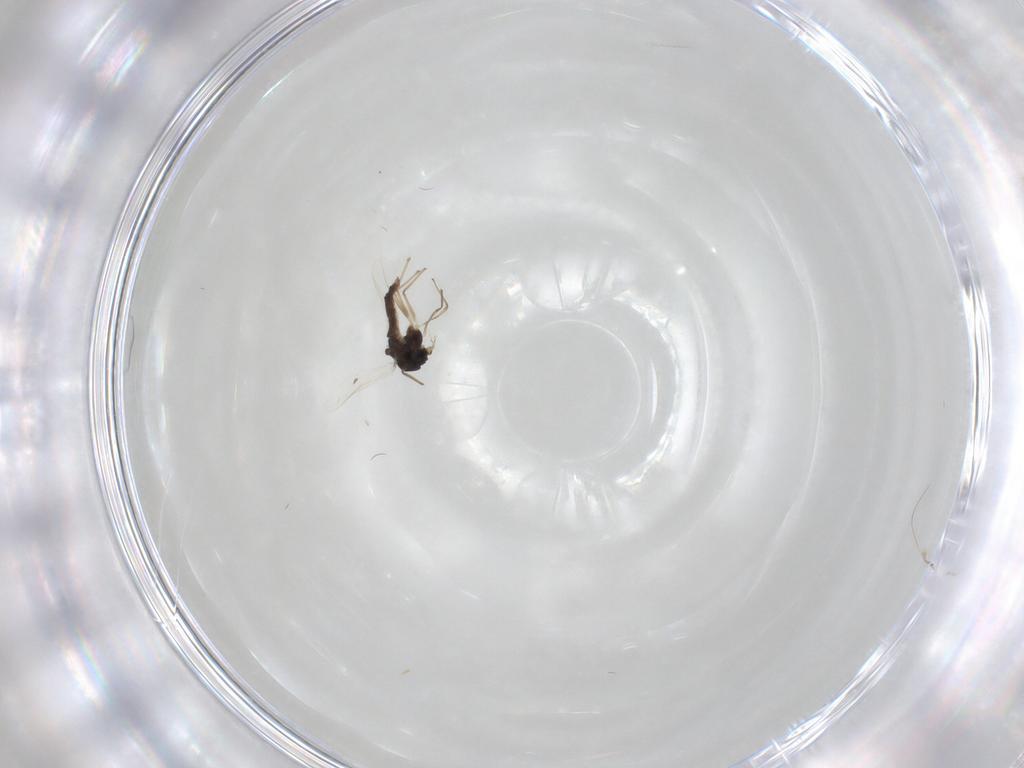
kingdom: Animalia
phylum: Arthropoda
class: Insecta
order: Diptera
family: Chironomidae
